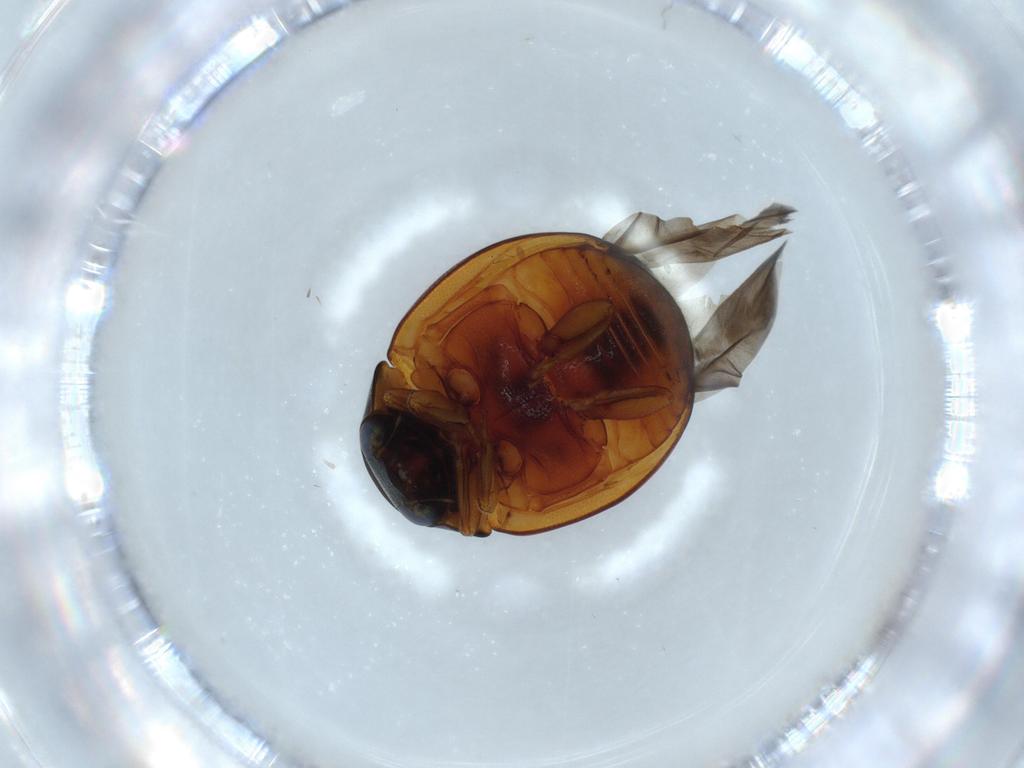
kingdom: Animalia
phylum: Arthropoda
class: Insecta
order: Coleoptera
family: Coccinellidae
